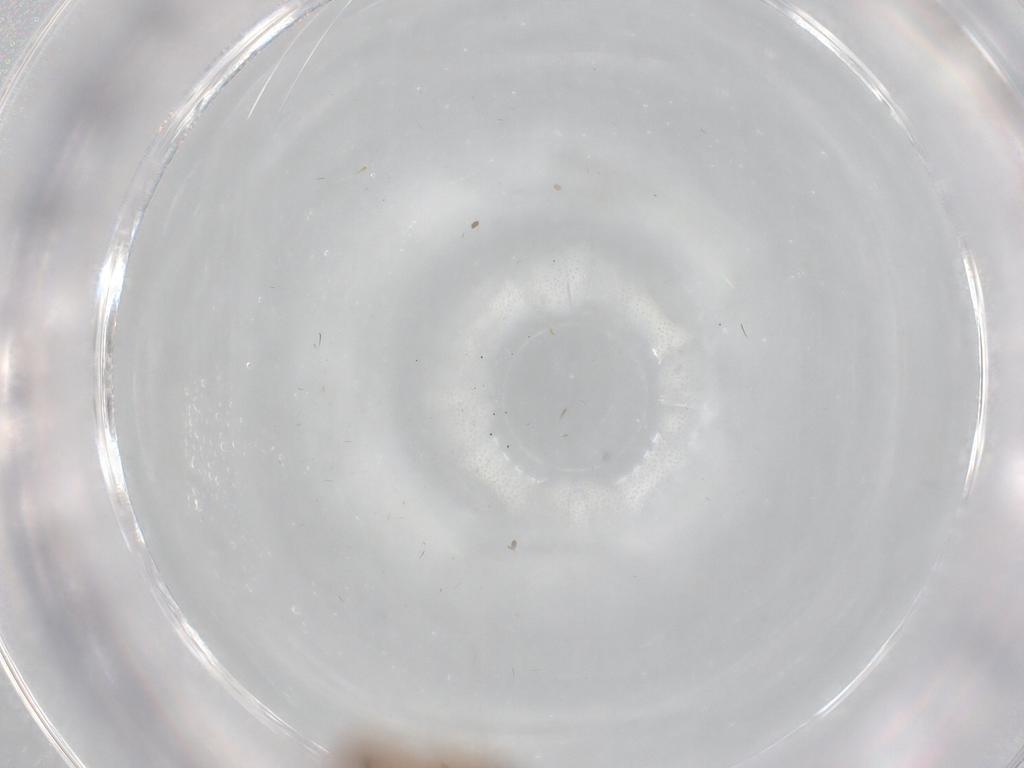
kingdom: Animalia
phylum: Arthropoda
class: Insecta
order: Diptera
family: Chironomidae
